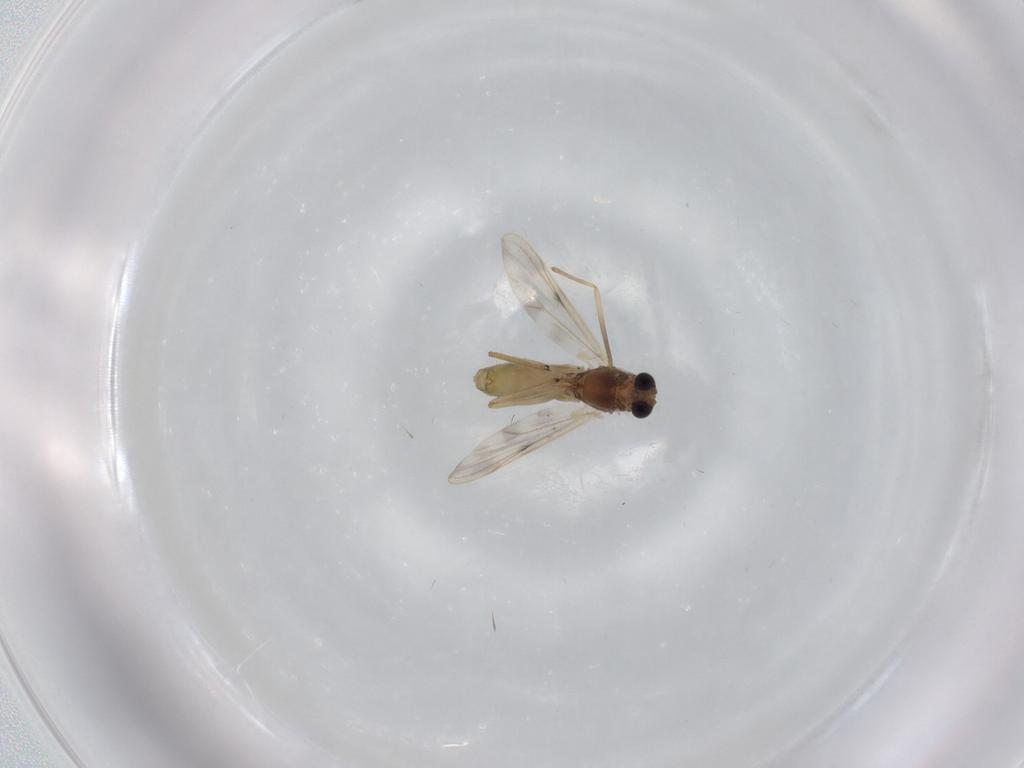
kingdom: Animalia
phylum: Arthropoda
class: Insecta
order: Diptera
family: Chironomidae
